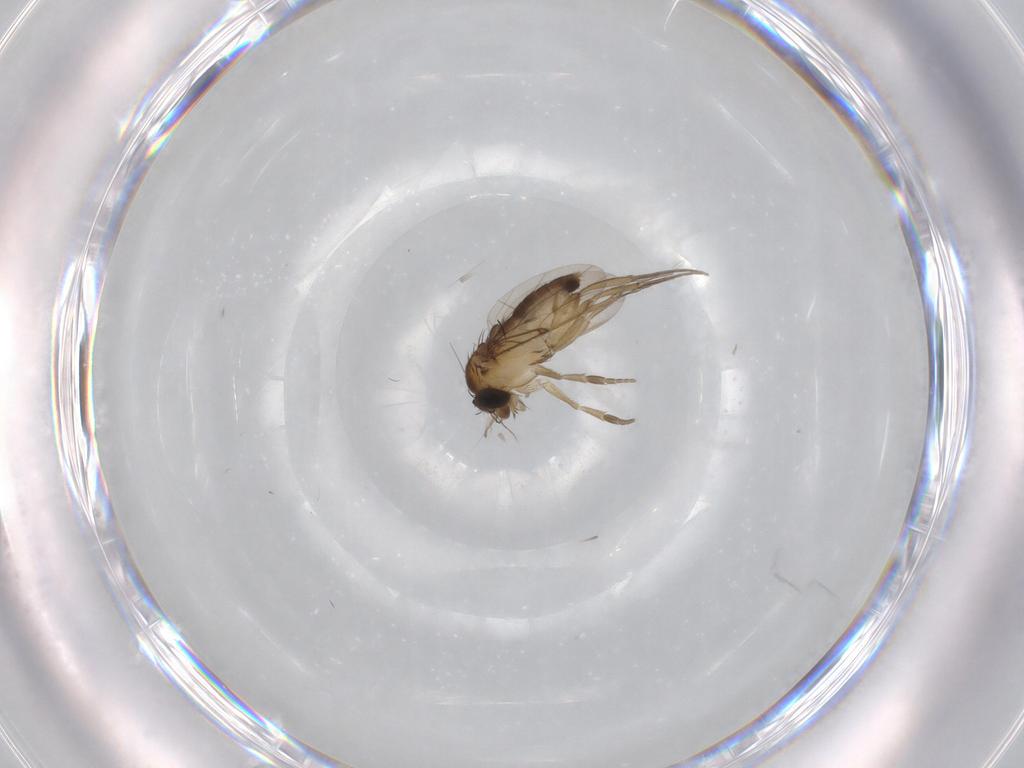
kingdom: Animalia
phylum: Arthropoda
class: Insecta
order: Diptera
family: Phoridae
